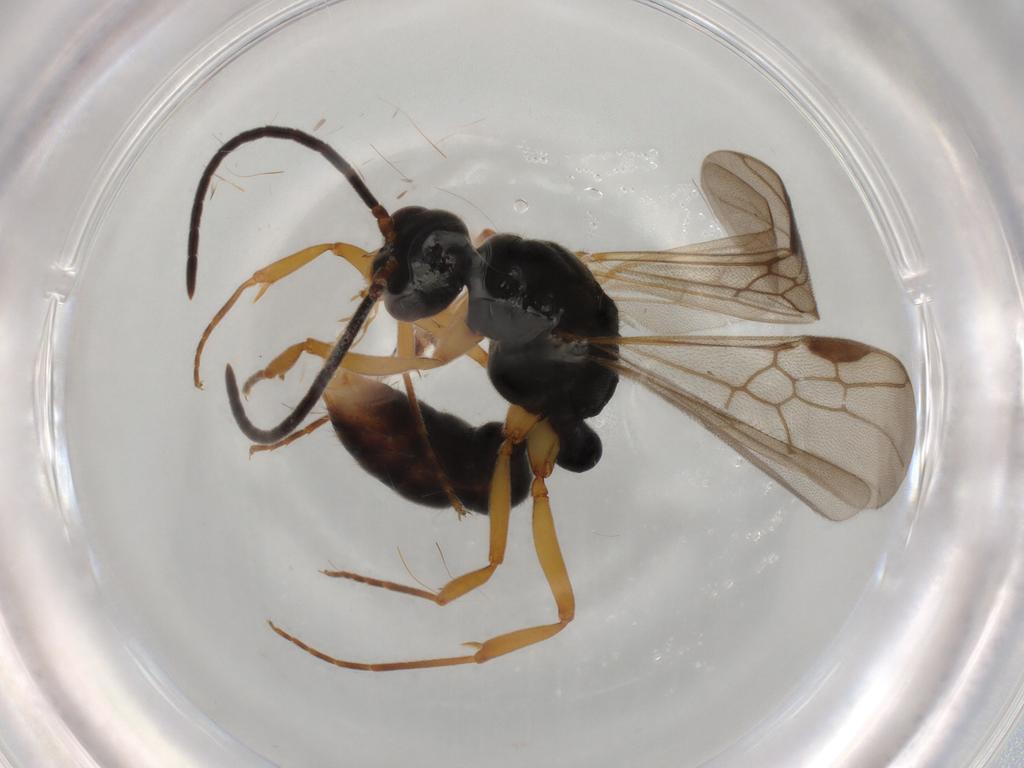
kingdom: Animalia
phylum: Arthropoda
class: Insecta
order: Hymenoptera
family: Formicidae
